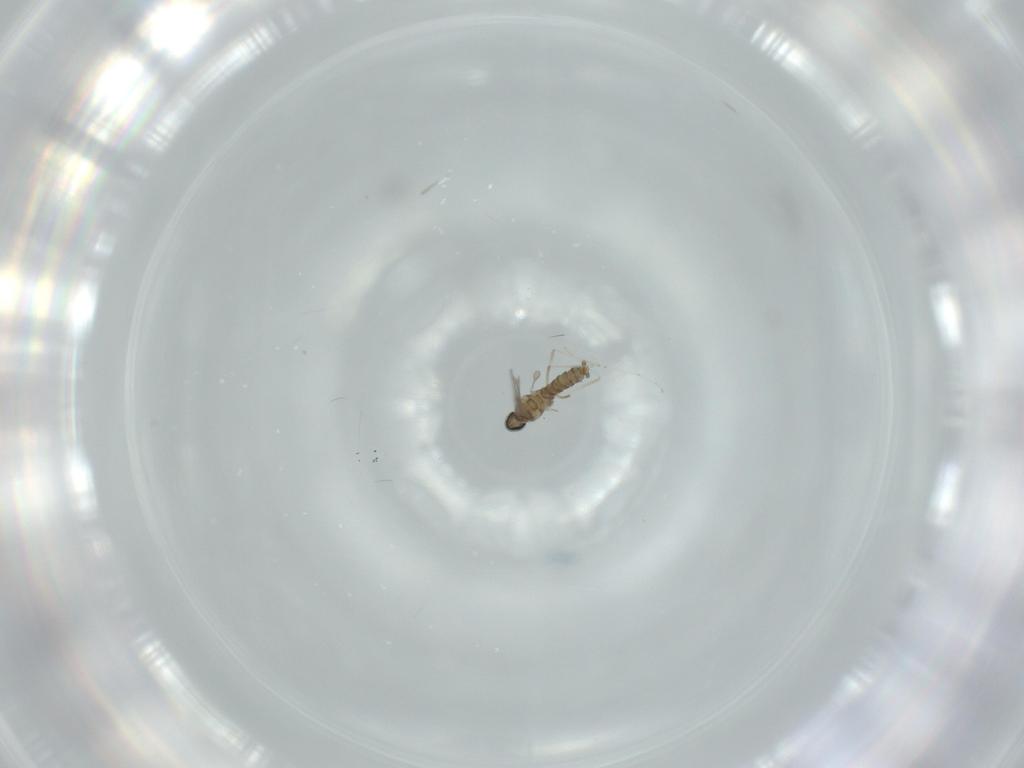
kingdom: Animalia
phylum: Arthropoda
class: Insecta
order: Diptera
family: Cecidomyiidae
